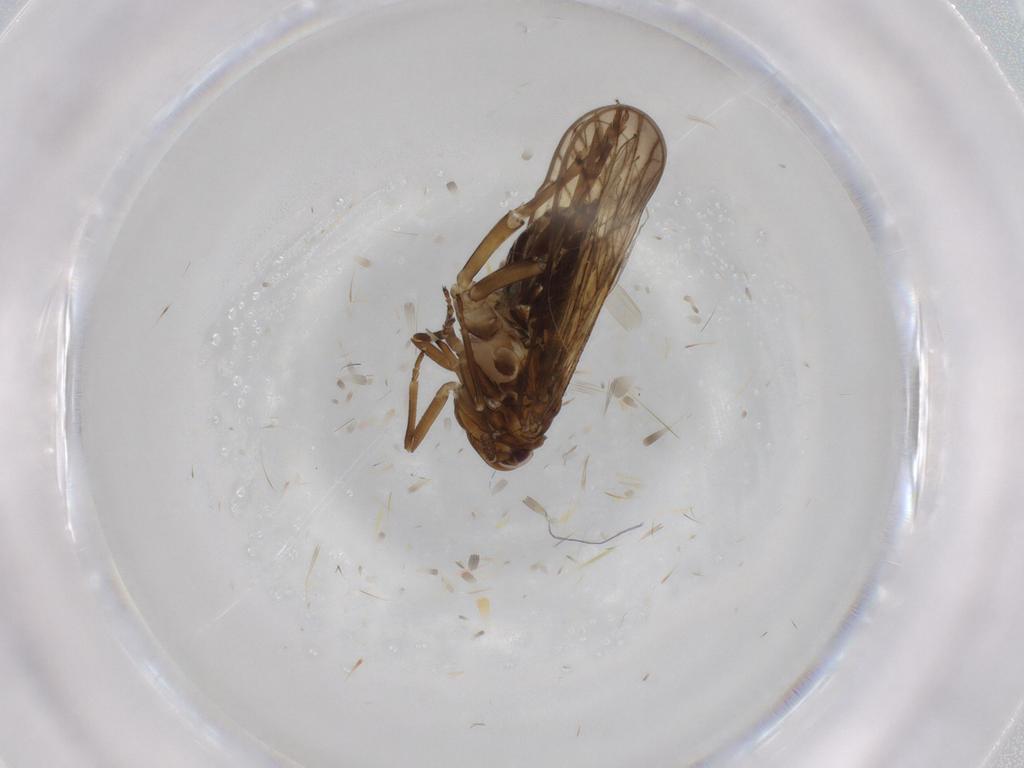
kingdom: Animalia
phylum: Arthropoda
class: Insecta
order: Hemiptera
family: Delphacidae
